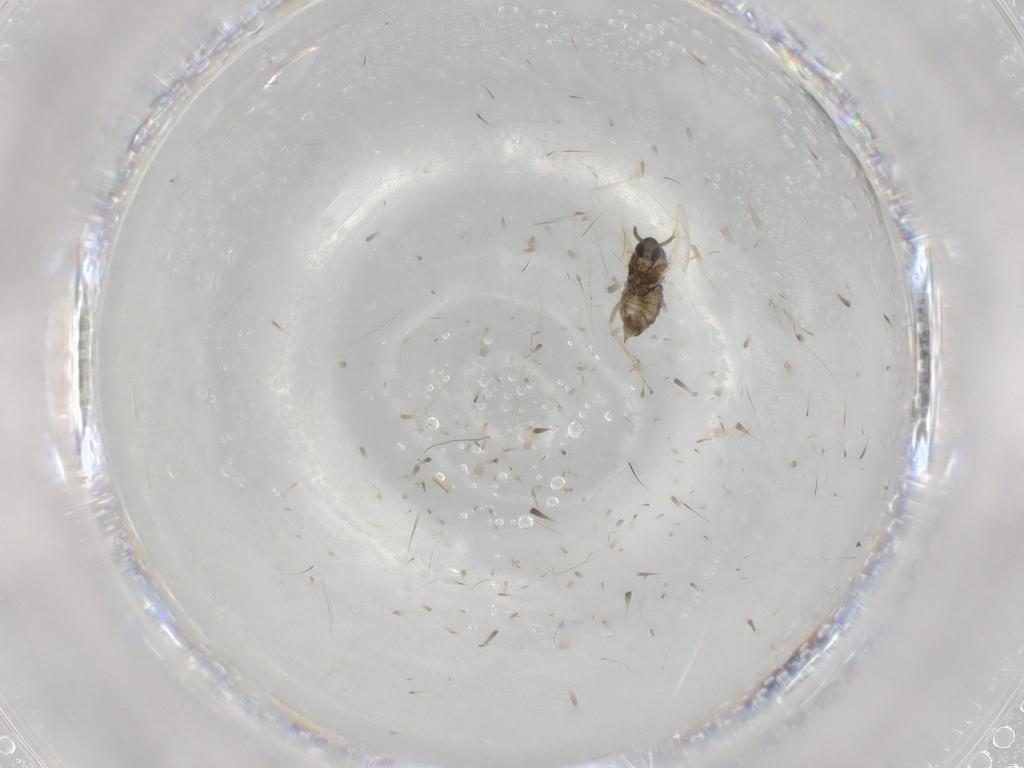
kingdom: Animalia
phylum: Arthropoda
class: Insecta
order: Diptera
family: Cecidomyiidae
